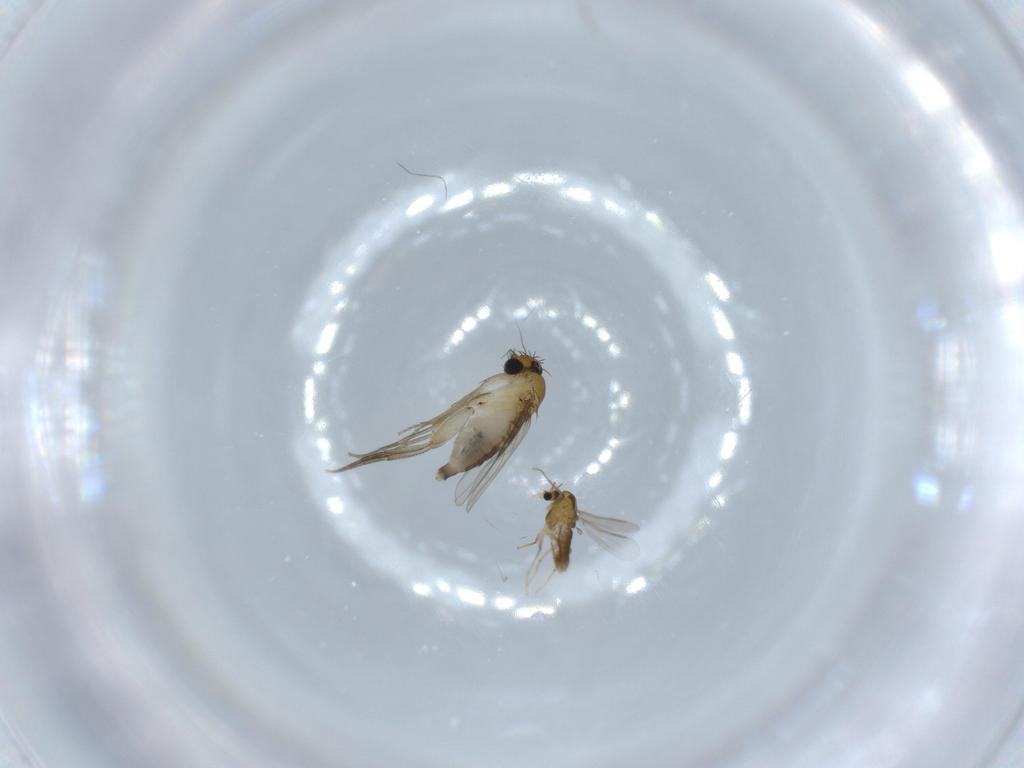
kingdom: Animalia
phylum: Arthropoda
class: Insecta
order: Diptera
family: Phoridae
